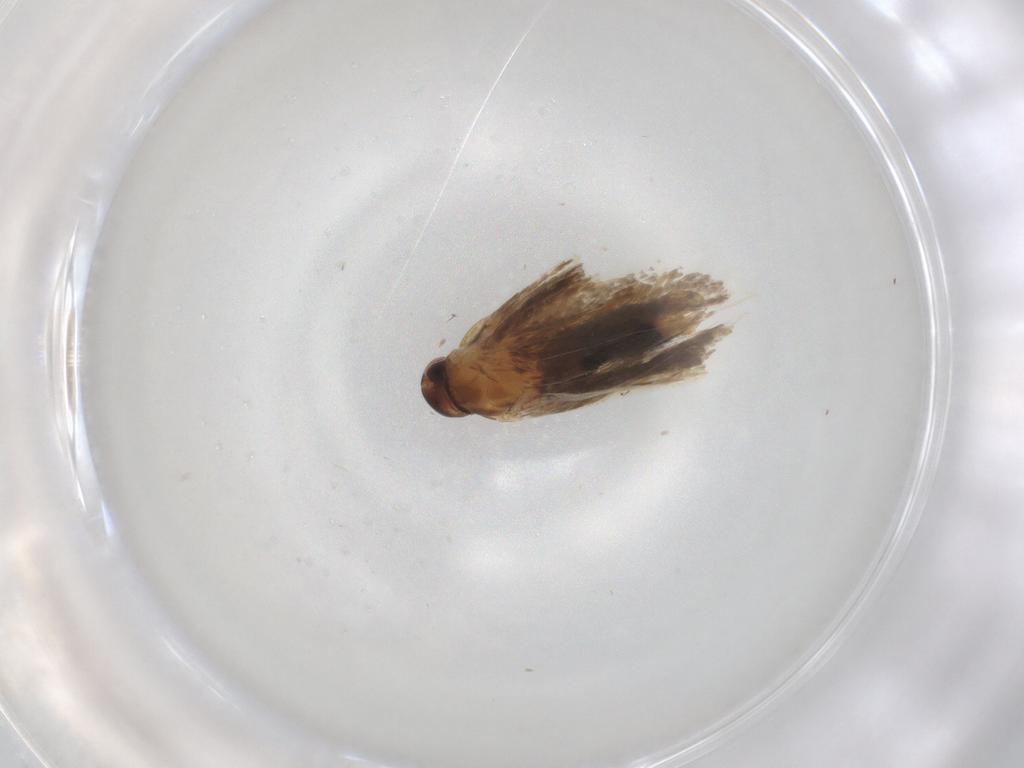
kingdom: Animalia
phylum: Arthropoda
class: Insecta
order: Lepidoptera
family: Oecophoridae
